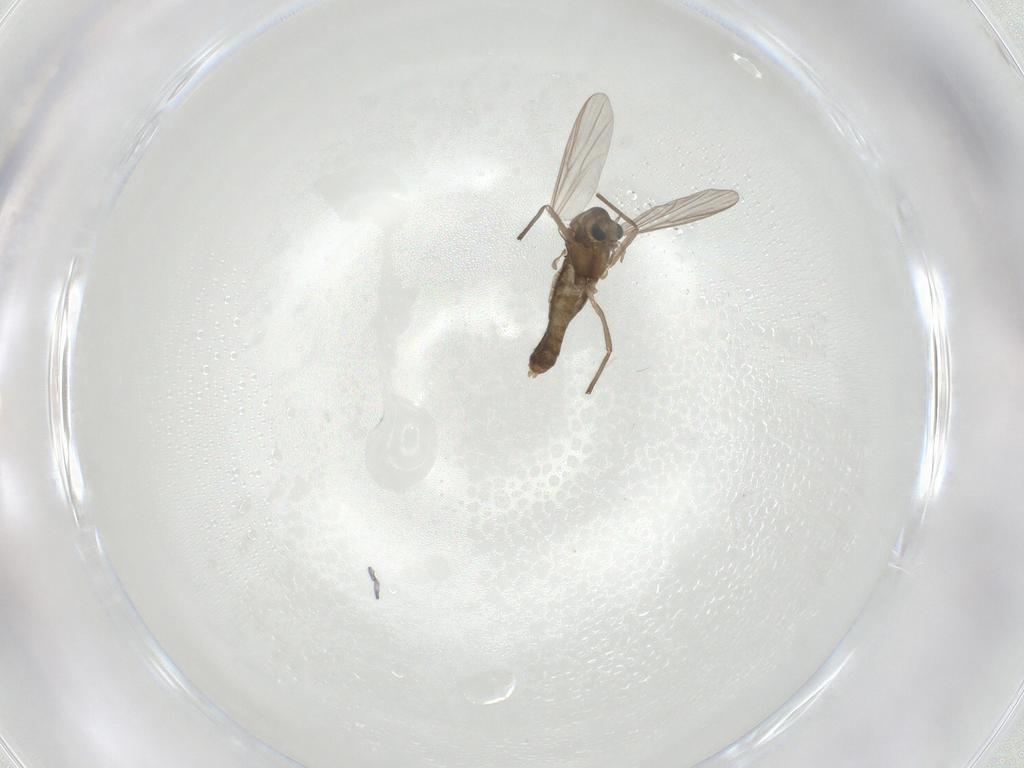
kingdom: Animalia
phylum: Arthropoda
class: Insecta
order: Diptera
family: Chironomidae
